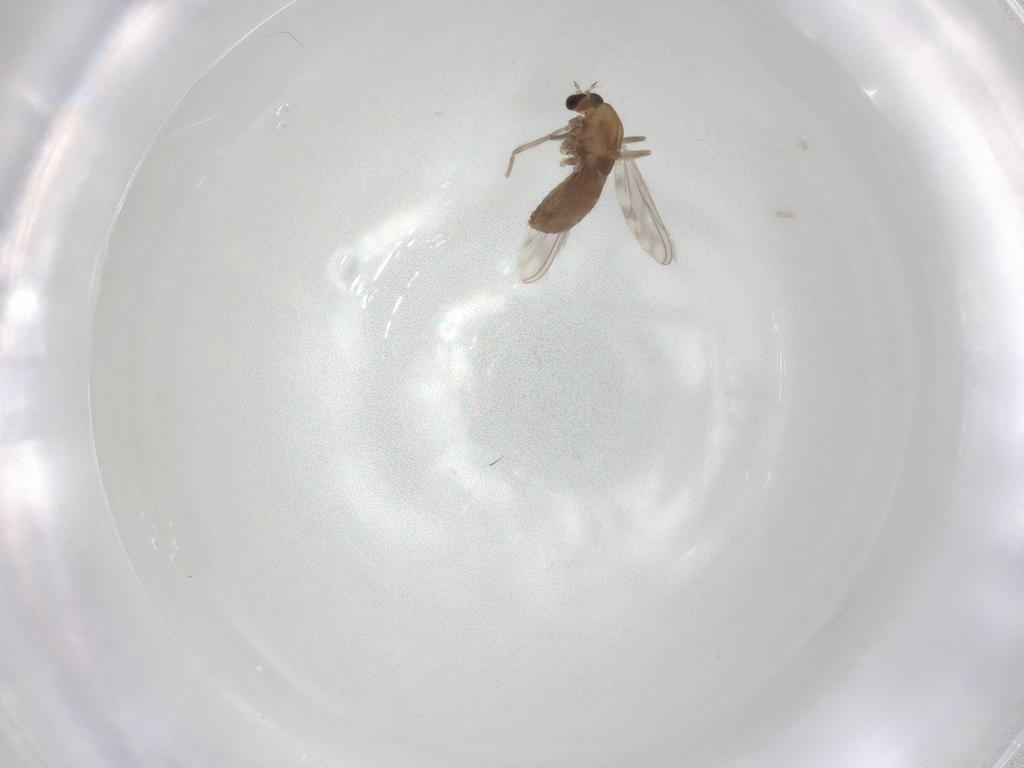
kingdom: Animalia
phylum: Arthropoda
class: Insecta
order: Diptera
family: Chironomidae
